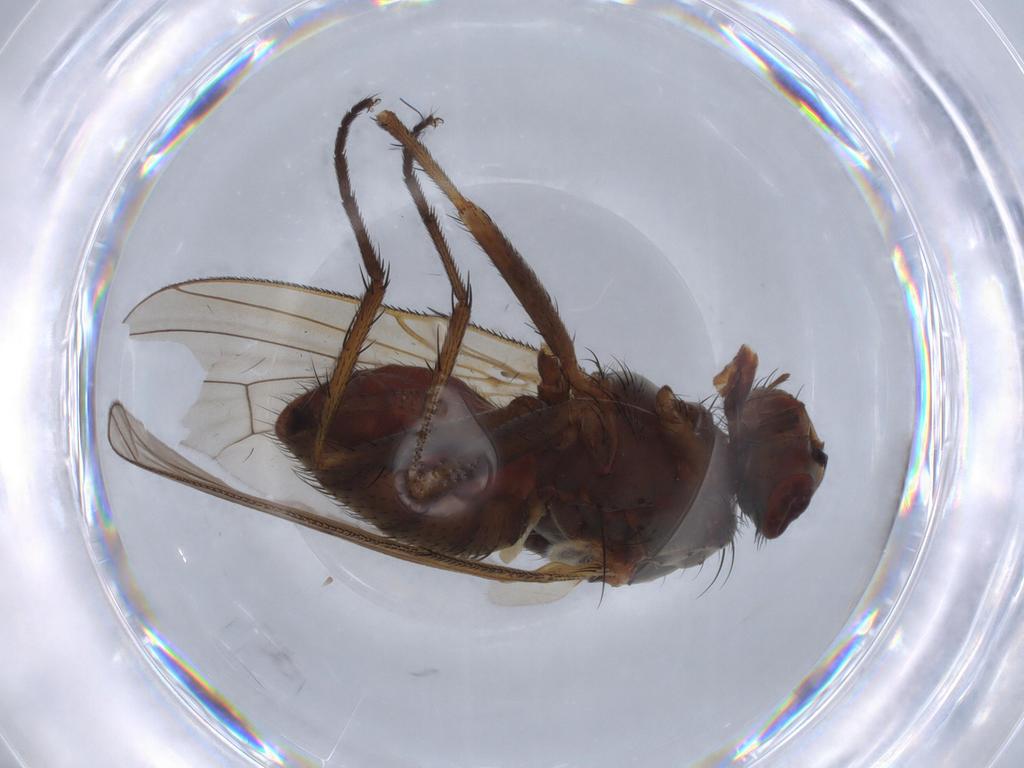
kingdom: Animalia
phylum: Arthropoda
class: Insecta
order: Diptera
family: Anthomyiidae
